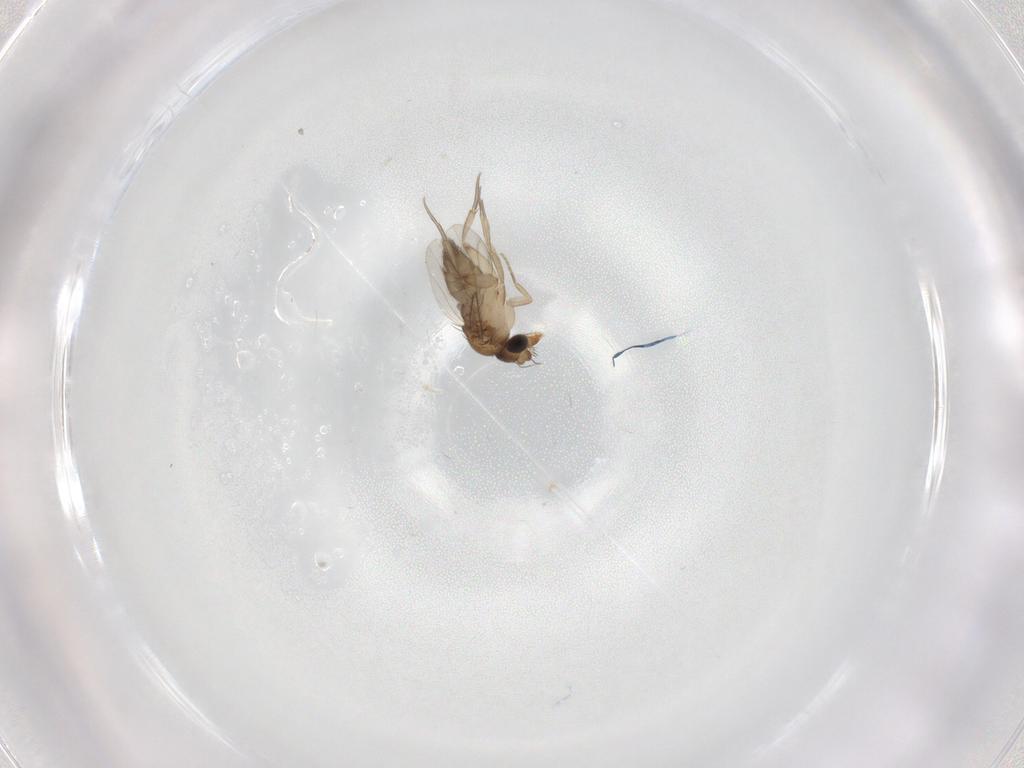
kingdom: Animalia
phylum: Arthropoda
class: Insecta
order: Diptera
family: Limoniidae
